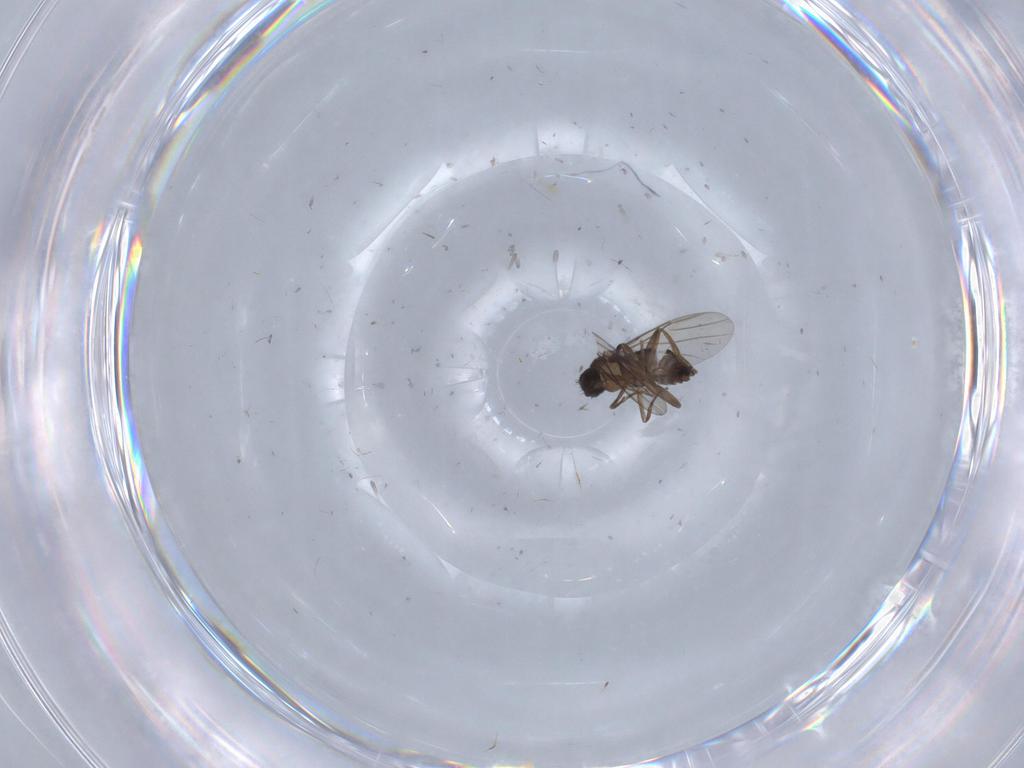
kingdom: Animalia
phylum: Arthropoda
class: Insecta
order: Diptera
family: Phoridae
